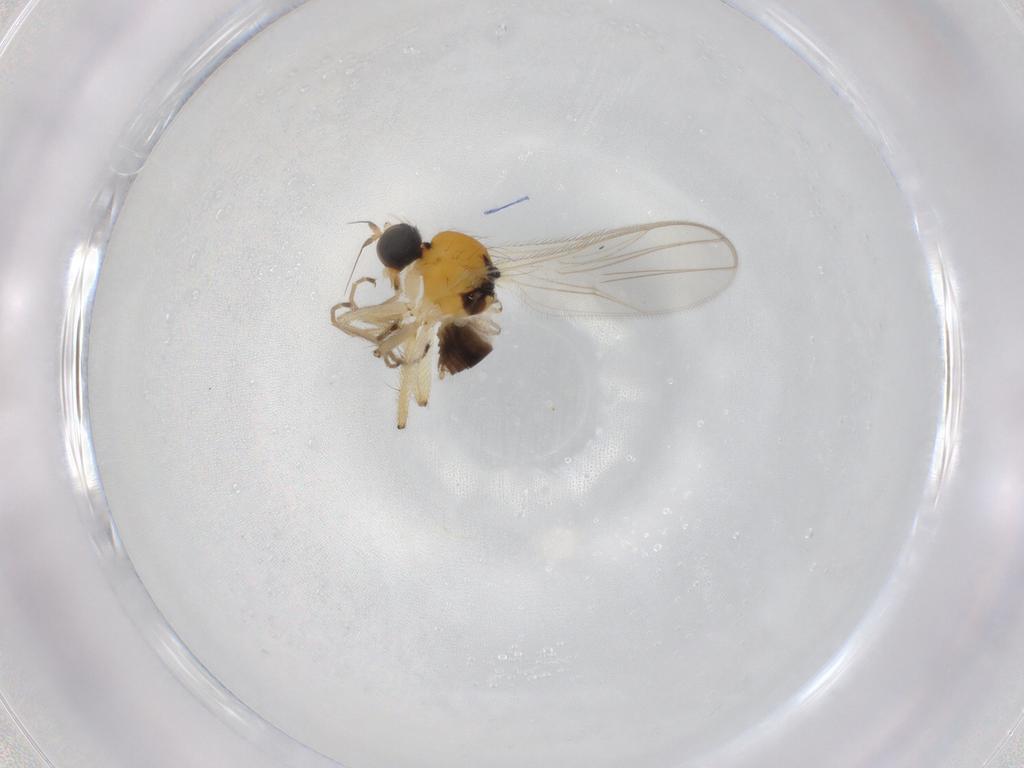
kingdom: Animalia
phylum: Arthropoda
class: Insecta
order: Diptera
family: Hybotidae
